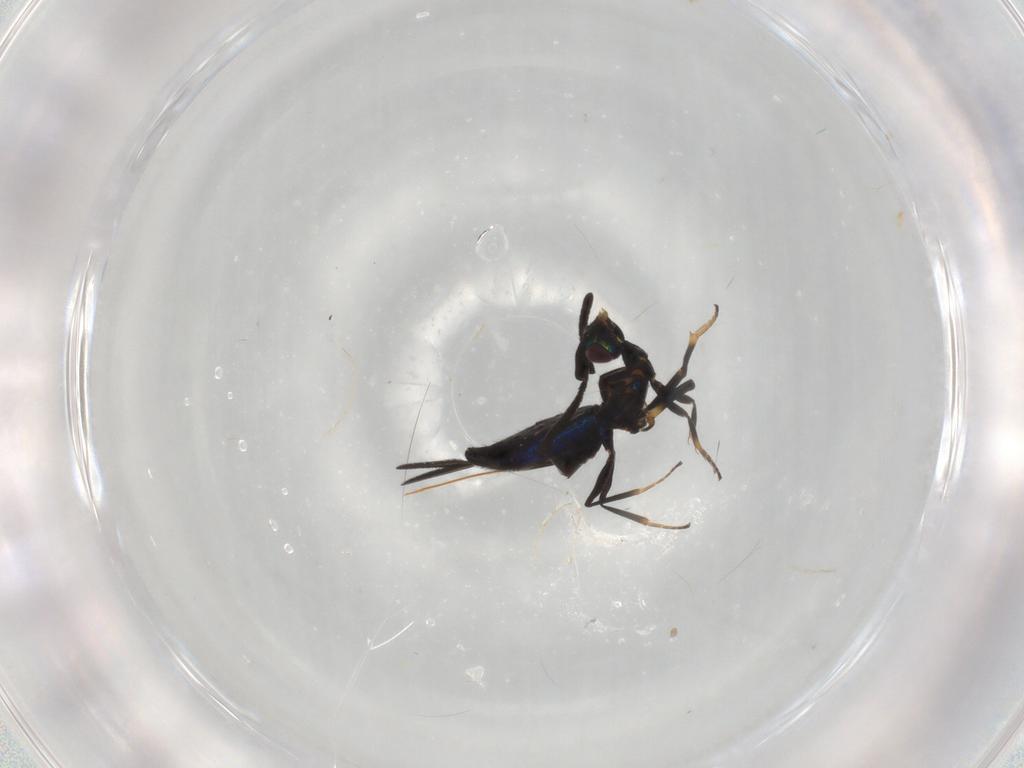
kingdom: Animalia
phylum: Arthropoda
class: Insecta
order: Hymenoptera
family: Eupelmidae
